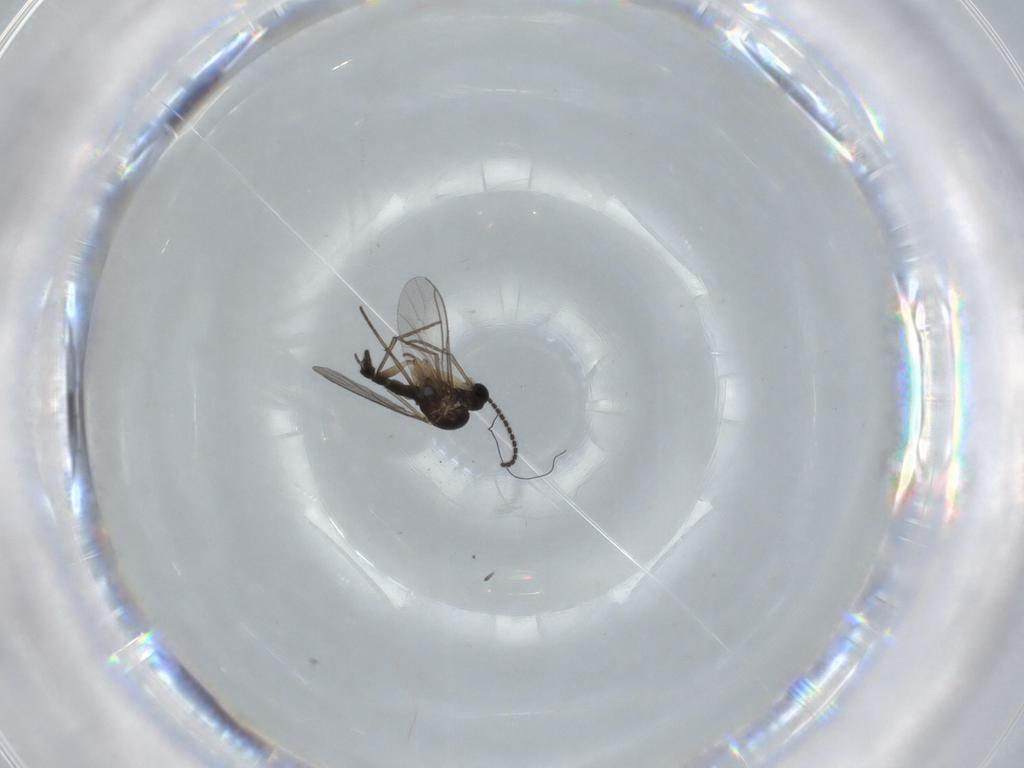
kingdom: Animalia
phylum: Arthropoda
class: Insecta
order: Diptera
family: Sciaridae
